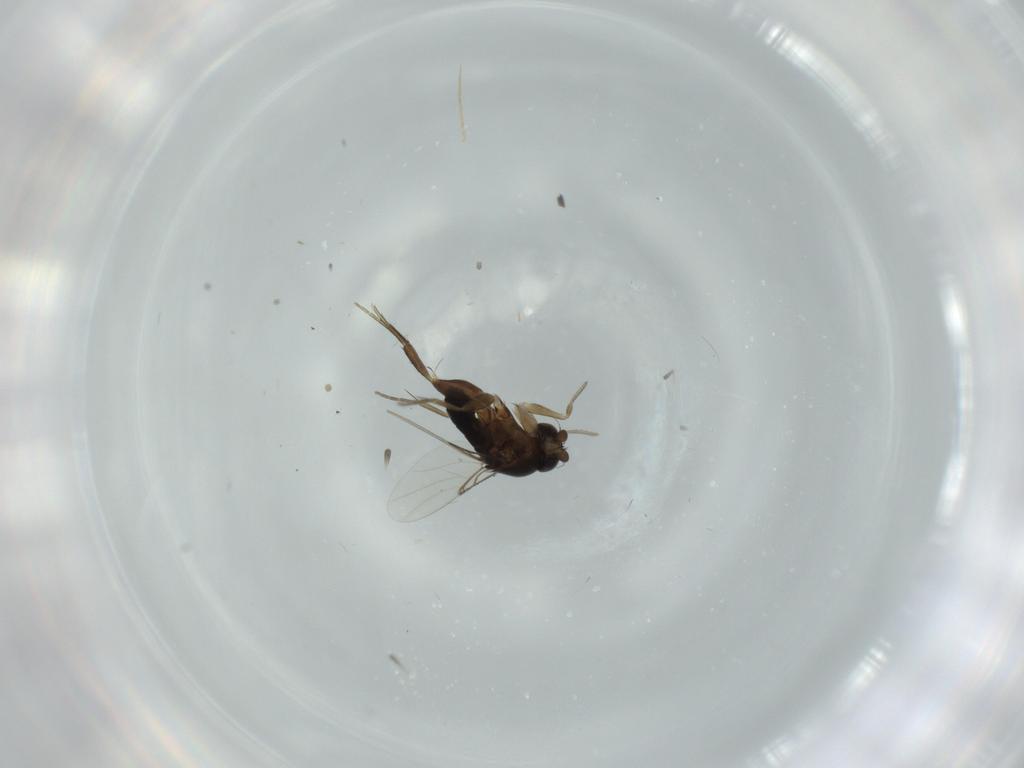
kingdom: Animalia
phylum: Arthropoda
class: Insecta
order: Diptera
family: Phoridae
